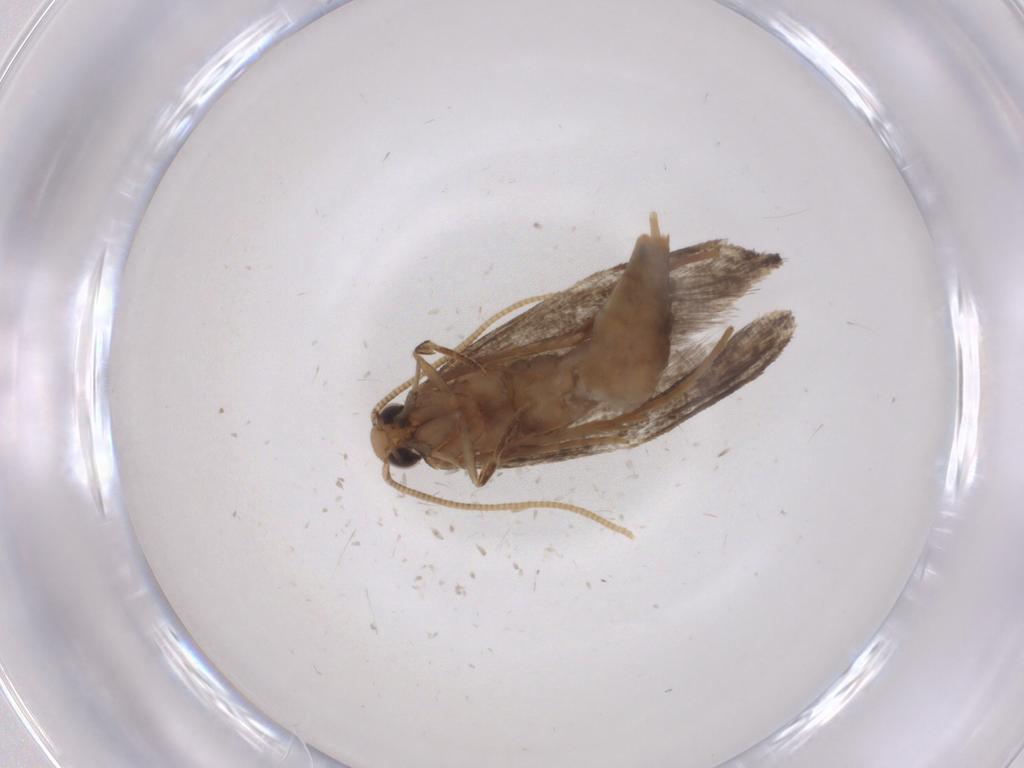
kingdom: Animalia
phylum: Arthropoda
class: Insecta
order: Lepidoptera
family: Tineidae
